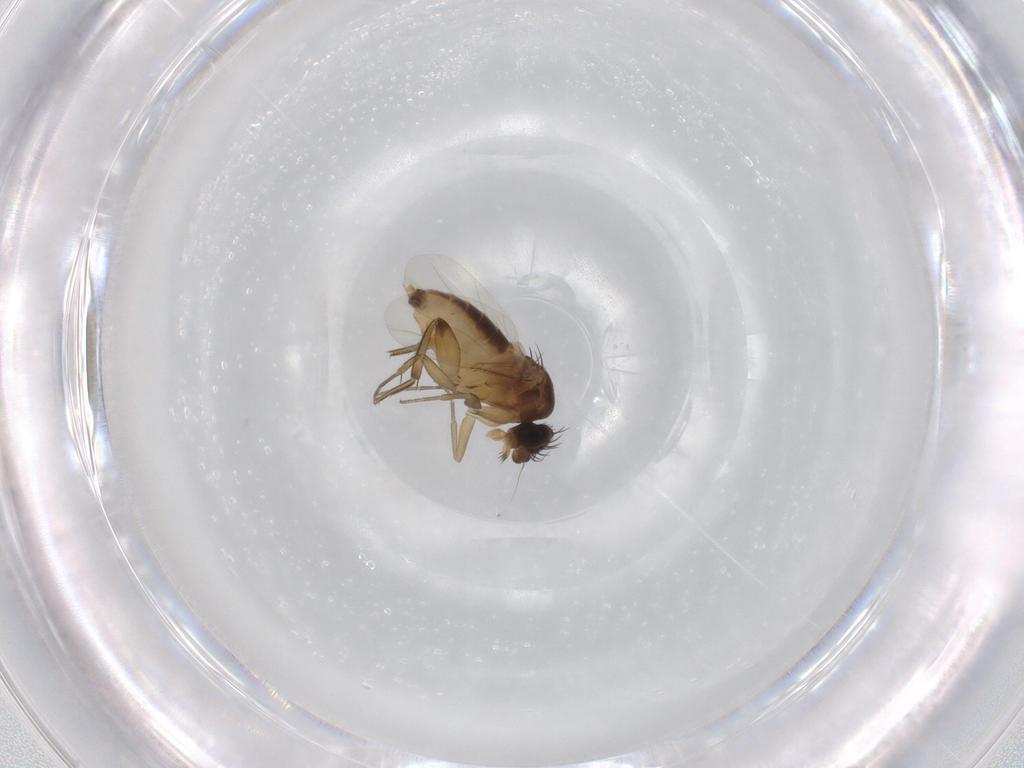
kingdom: Animalia
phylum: Arthropoda
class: Insecta
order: Diptera
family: Phoridae
